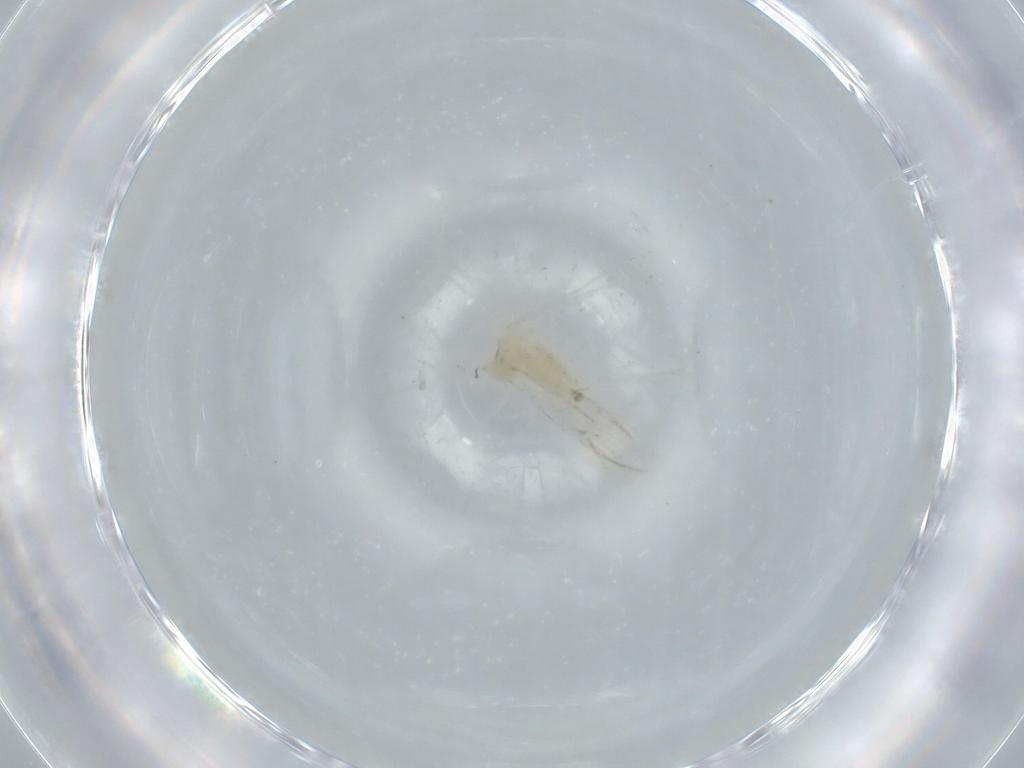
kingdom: Animalia
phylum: Arthropoda
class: Insecta
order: Diptera
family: Cecidomyiidae
